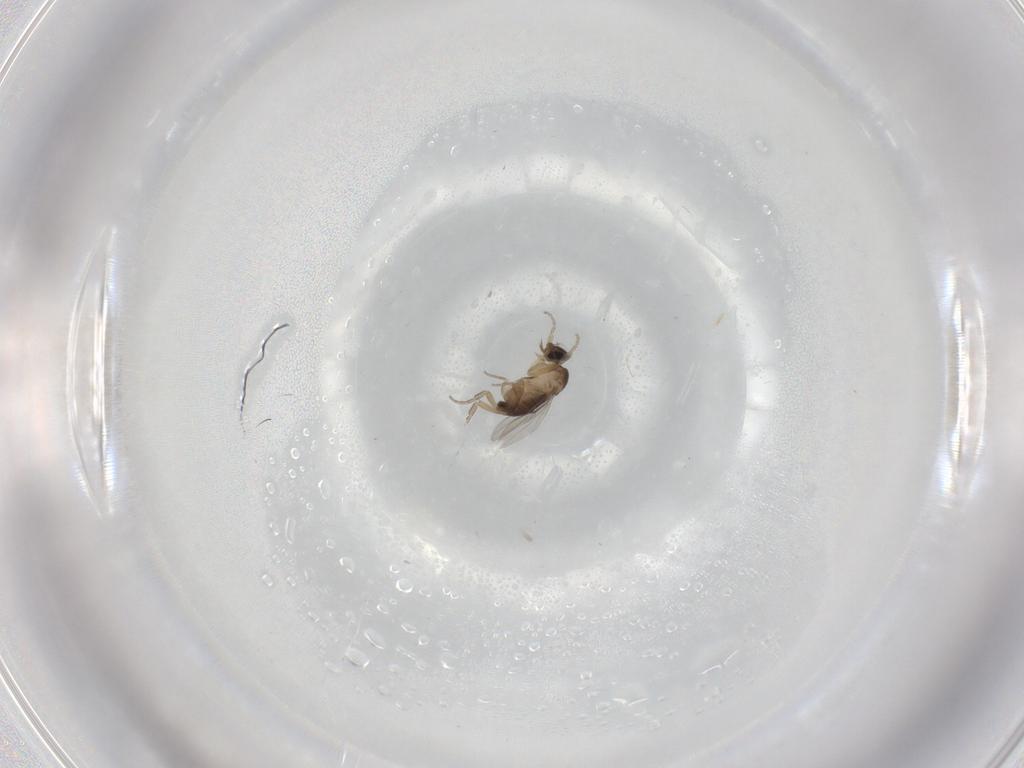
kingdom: Animalia
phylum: Arthropoda
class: Insecta
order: Diptera
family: Phoridae
